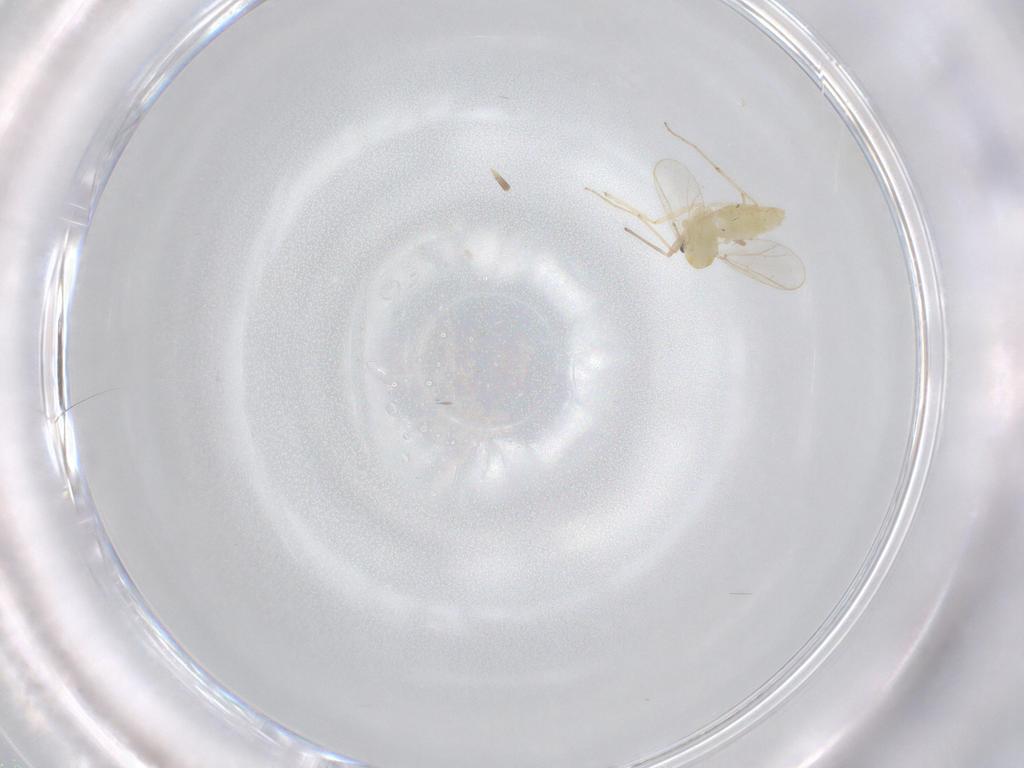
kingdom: Animalia
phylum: Arthropoda
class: Insecta
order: Diptera
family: Chironomidae
